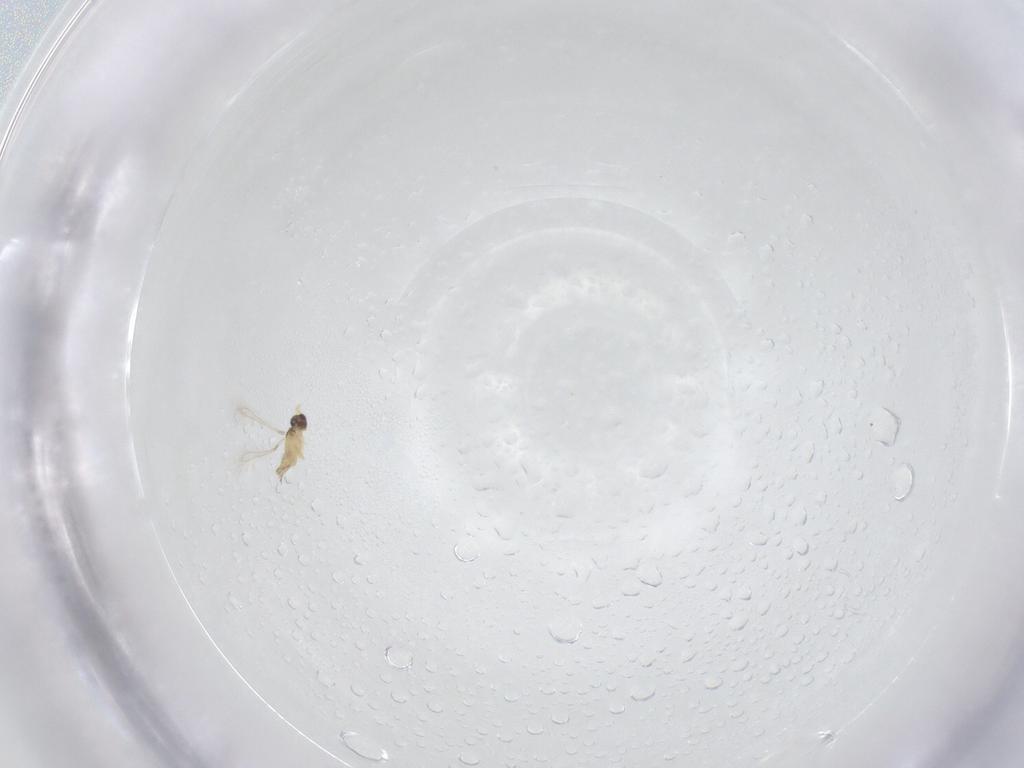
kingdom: Animalia
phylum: Arthropoda
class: Insecta
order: Hymenoptera
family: Mymaridae
